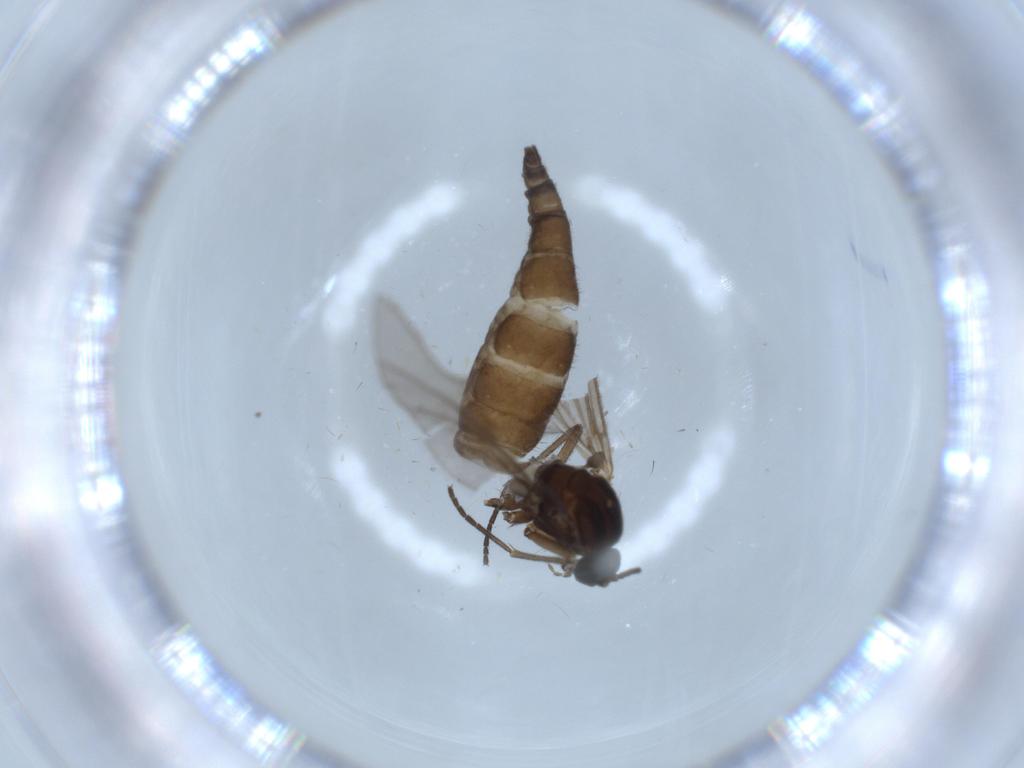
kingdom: Animalia
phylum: Arthropoda
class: Insecta
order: Diptera
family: Sciaridae
